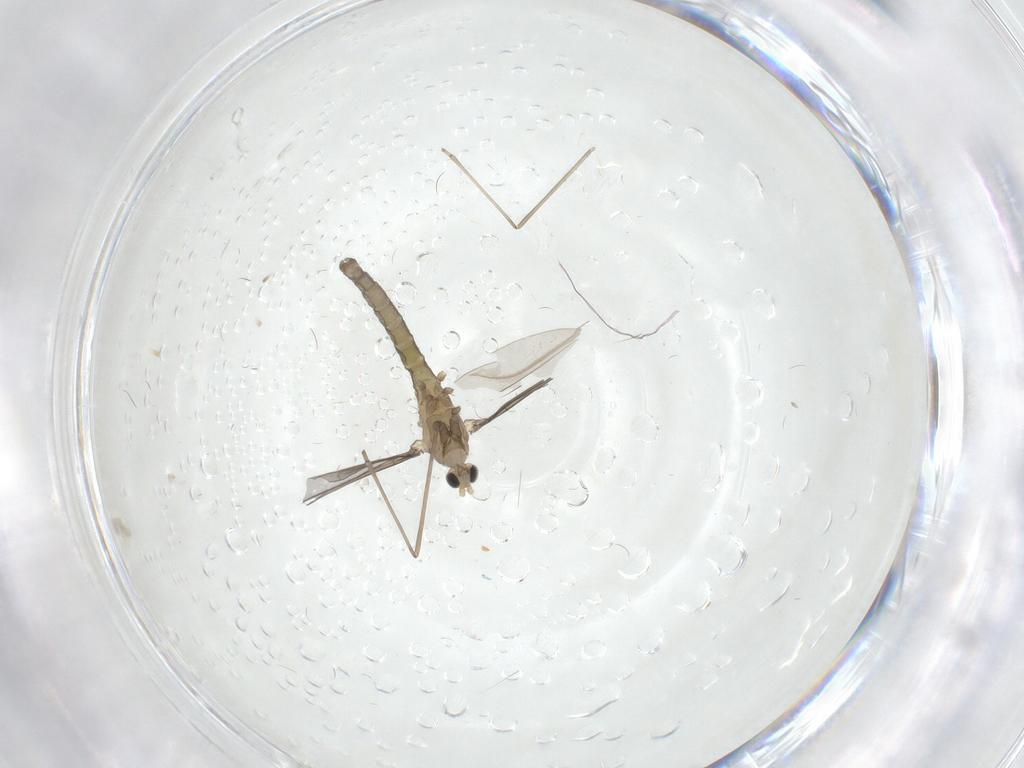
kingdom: Animalia
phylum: Arthropoda
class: Insecta
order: Diptera
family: Cecidomyiidae
